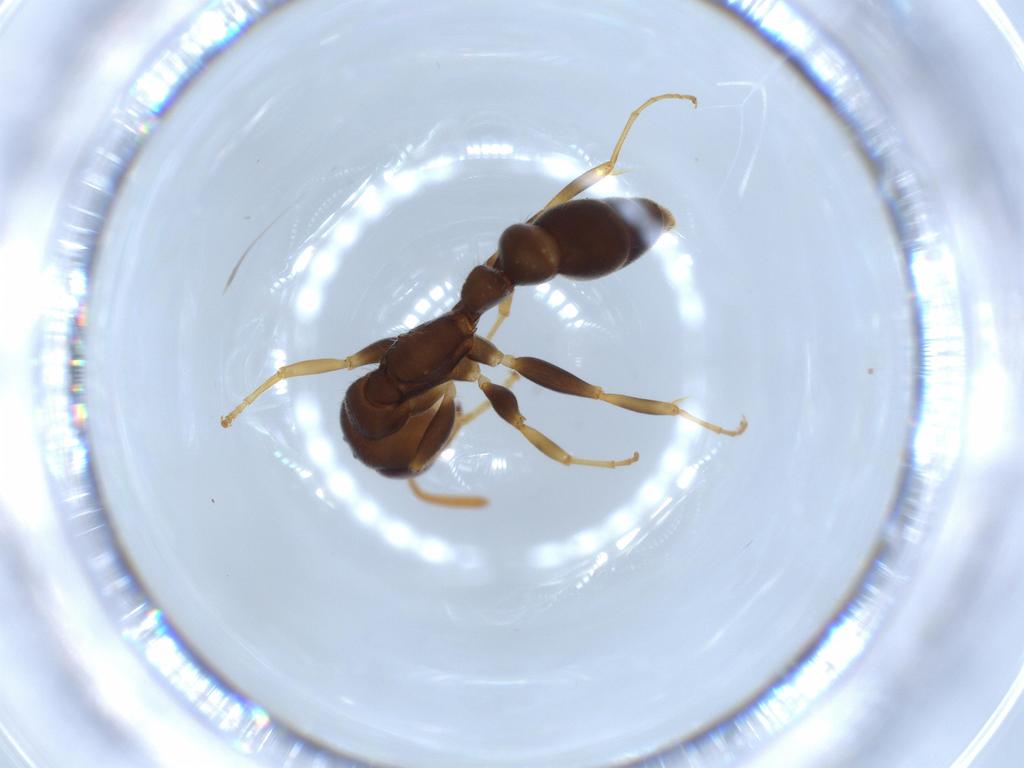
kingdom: Animalia
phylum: Arthropoda
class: Insecta
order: Hymenoptera
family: Formicidae
